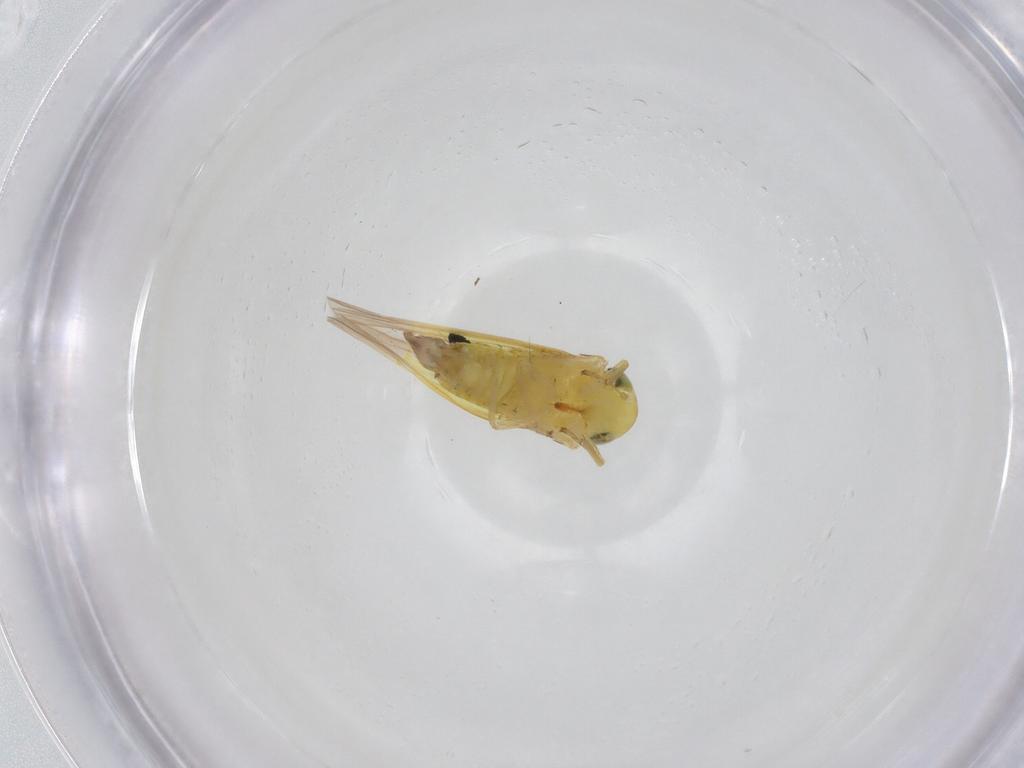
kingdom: Animalia
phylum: Arthropoda
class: Insecta
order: Hemiptera
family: Cicadellidae
